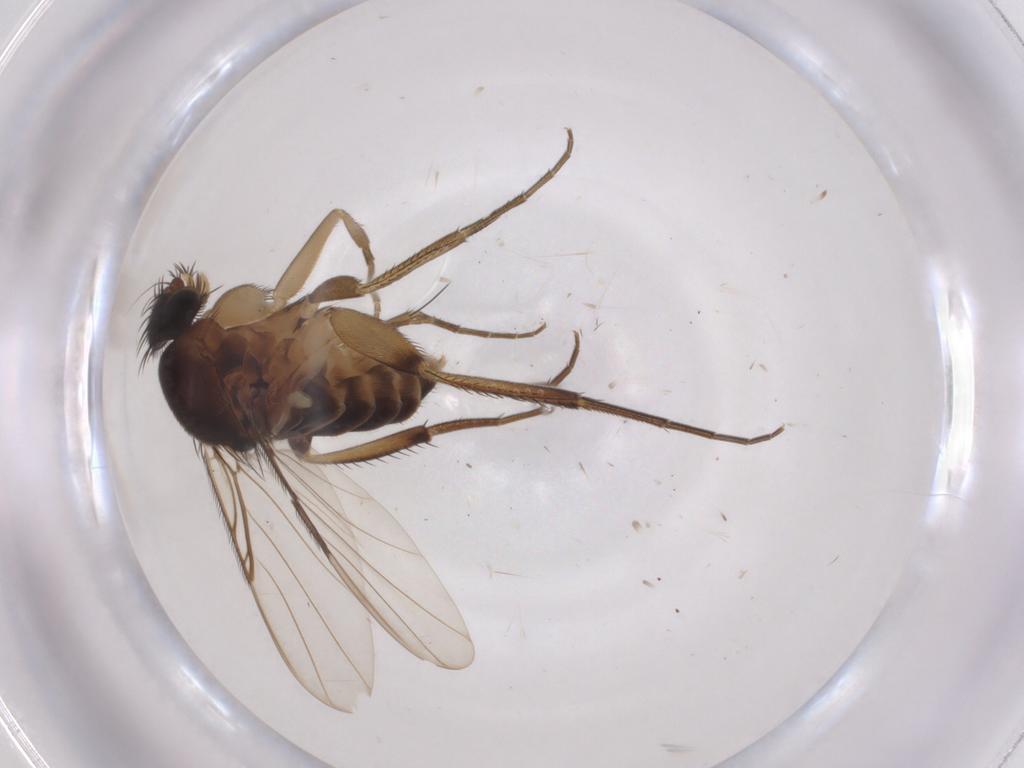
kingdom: Animalia
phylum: Arthropoda
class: Insecta
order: Diptera
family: Phoridae
